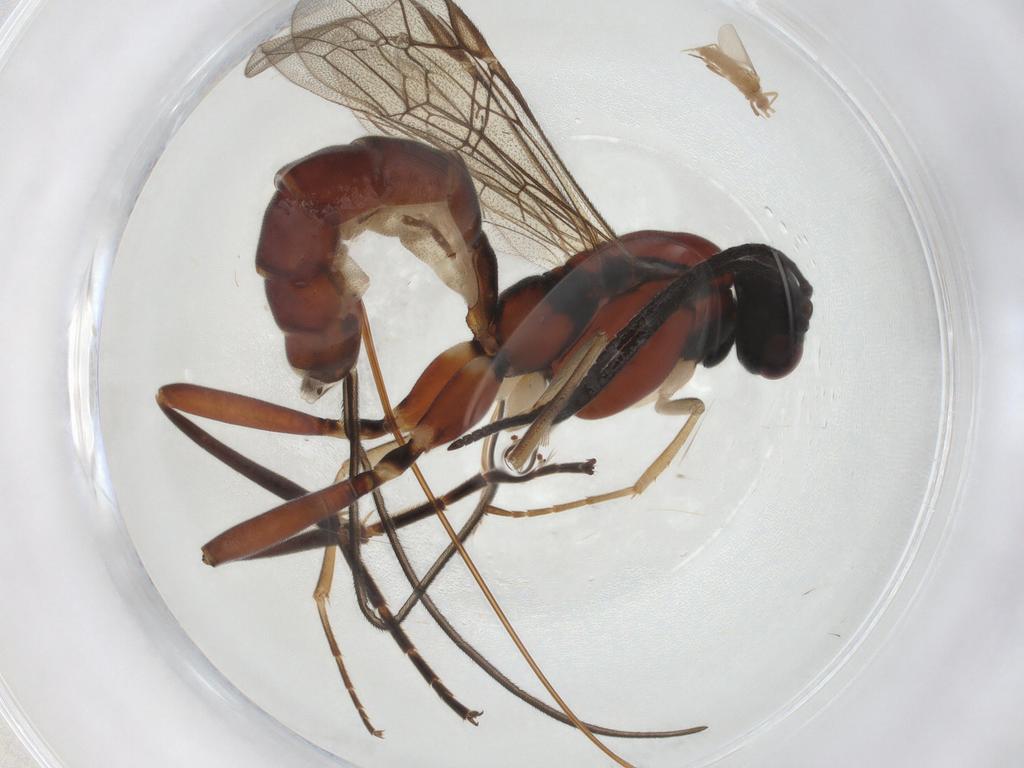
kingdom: Animalia
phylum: Arthropoda
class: Insecta
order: Hymenoptera
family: Ichneumonidae
